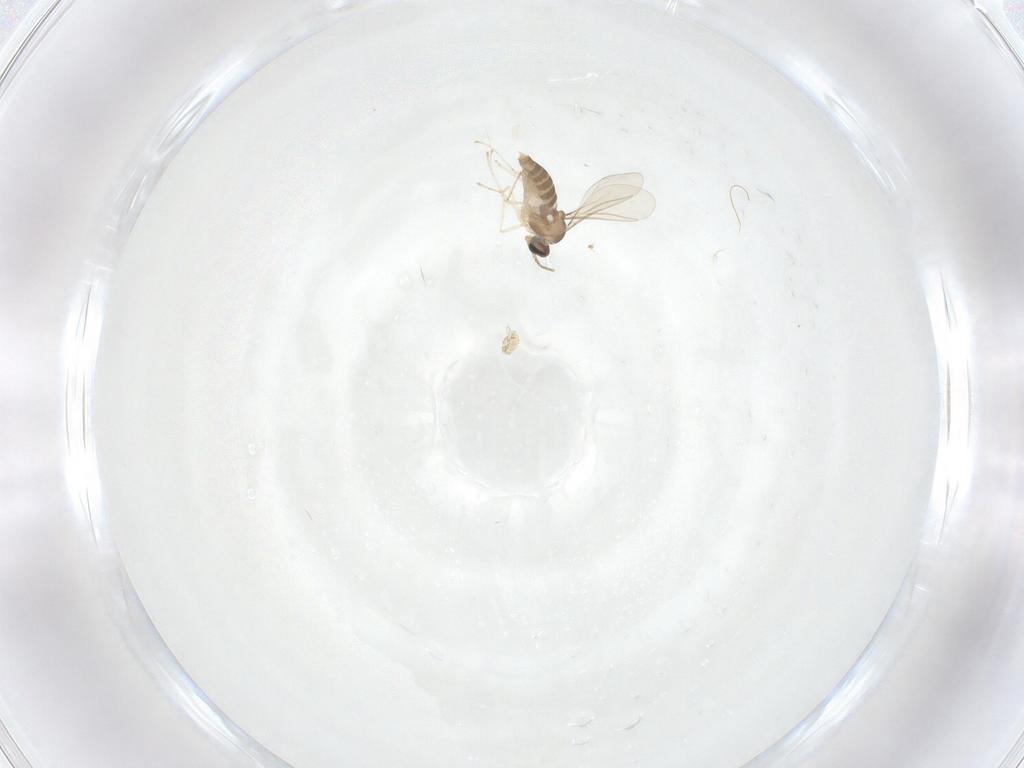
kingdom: Animalia
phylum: Arthropoda
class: Insecta
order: Diptera
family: Cecidomyiidae
